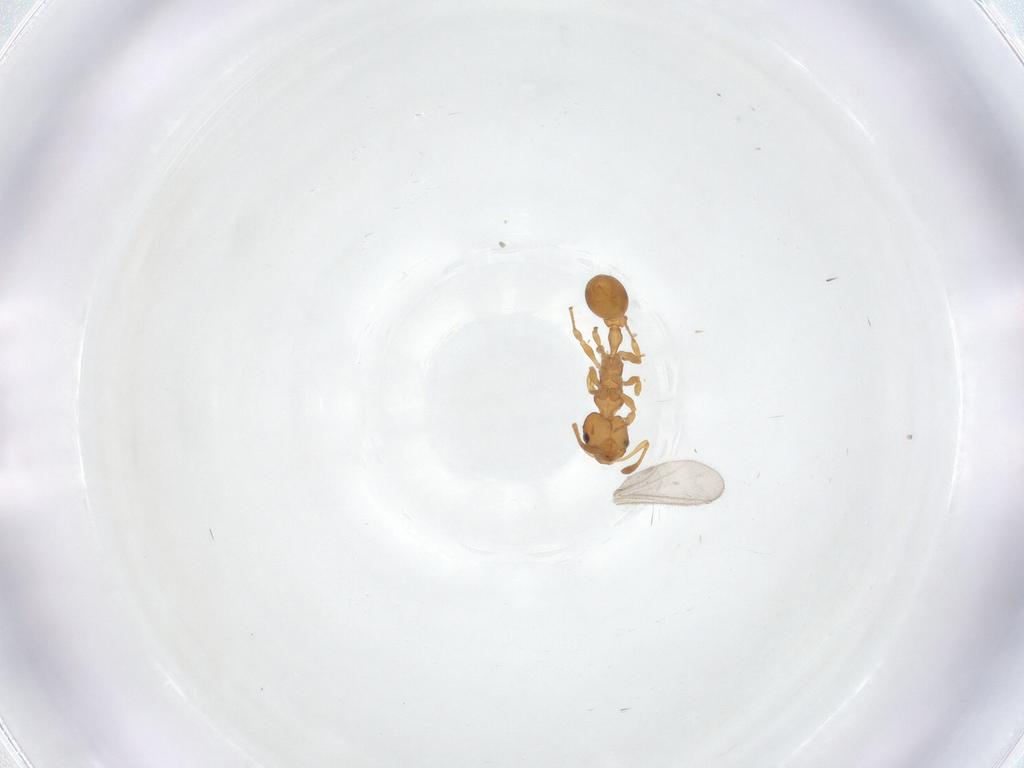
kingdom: Animalia
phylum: Arthropoda
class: Insecta
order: Hymenoptera
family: Formicidae
